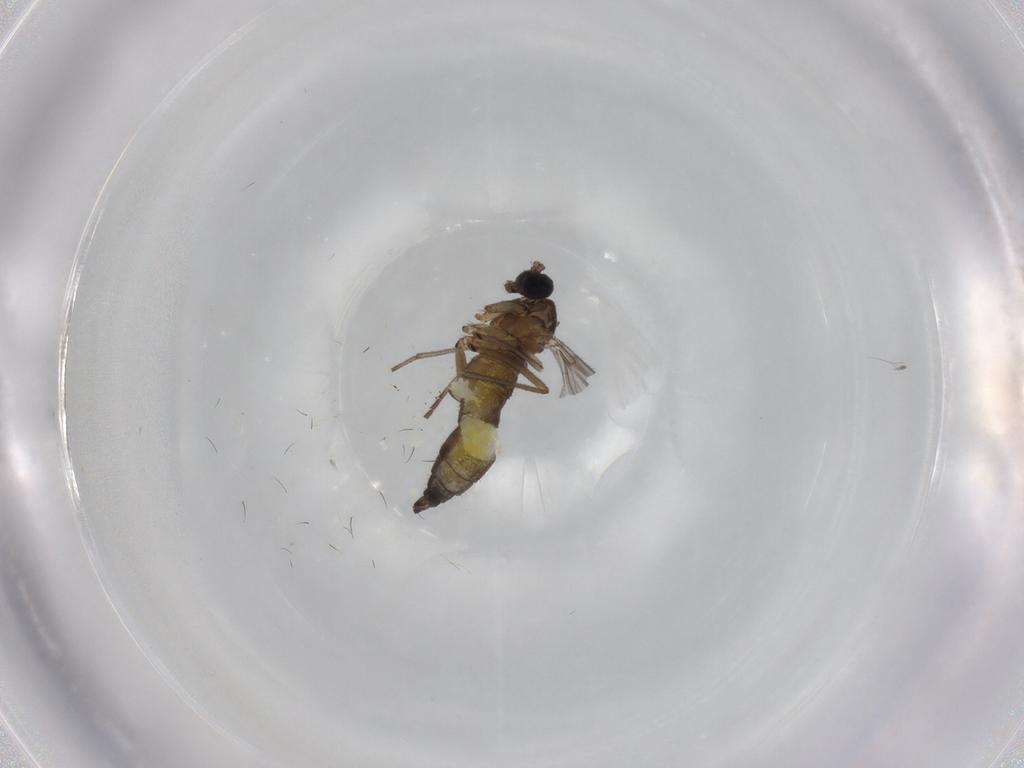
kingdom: Animalia
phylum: Arthropoda
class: Insecta
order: Diptera
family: Sciaridae
